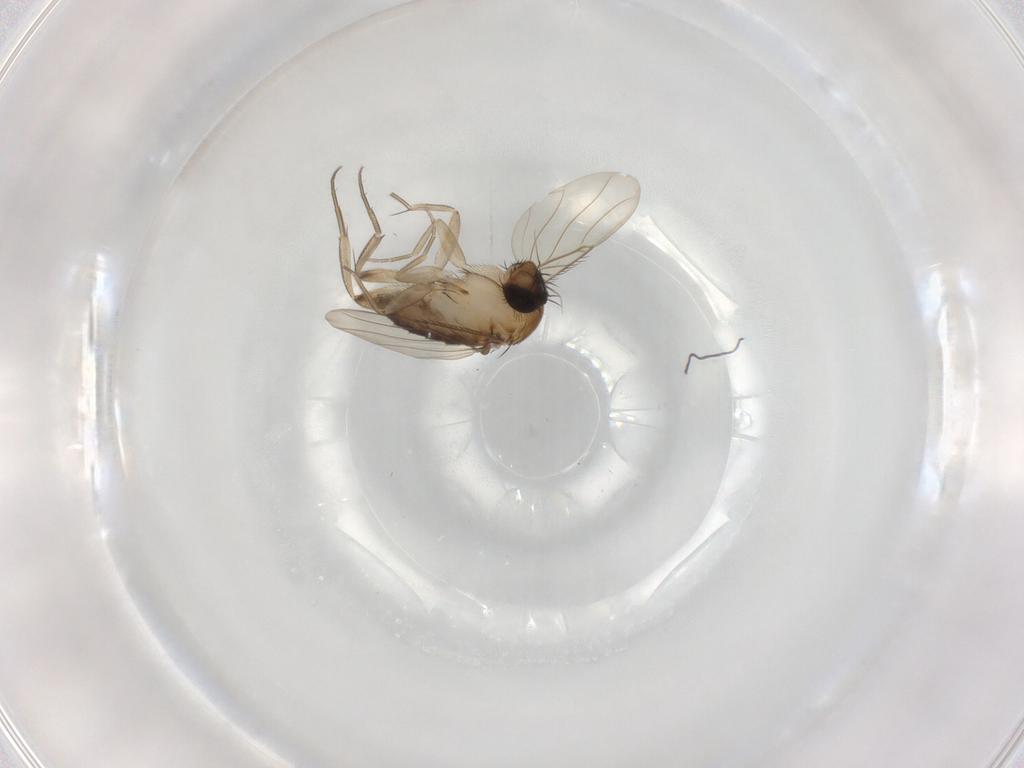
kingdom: Animalia
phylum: Arthropoda
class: Insecta
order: Diptera
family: Phoridae
